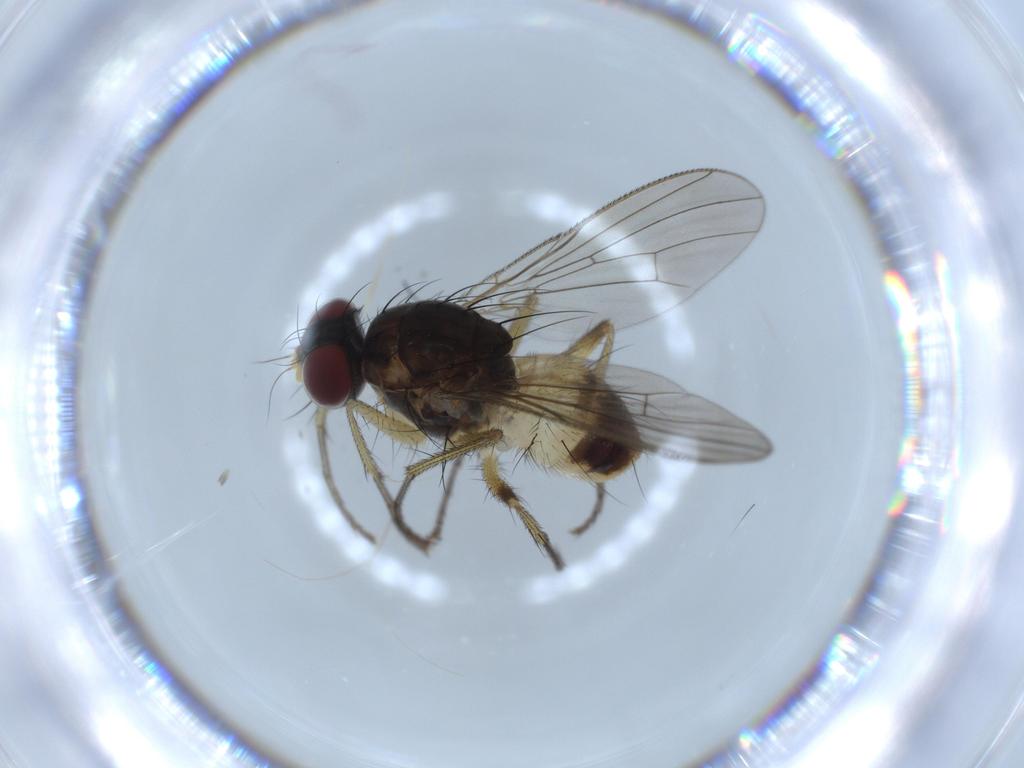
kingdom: Animalia
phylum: Arthropoda
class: Insecta
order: Diptera
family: Muscidae
